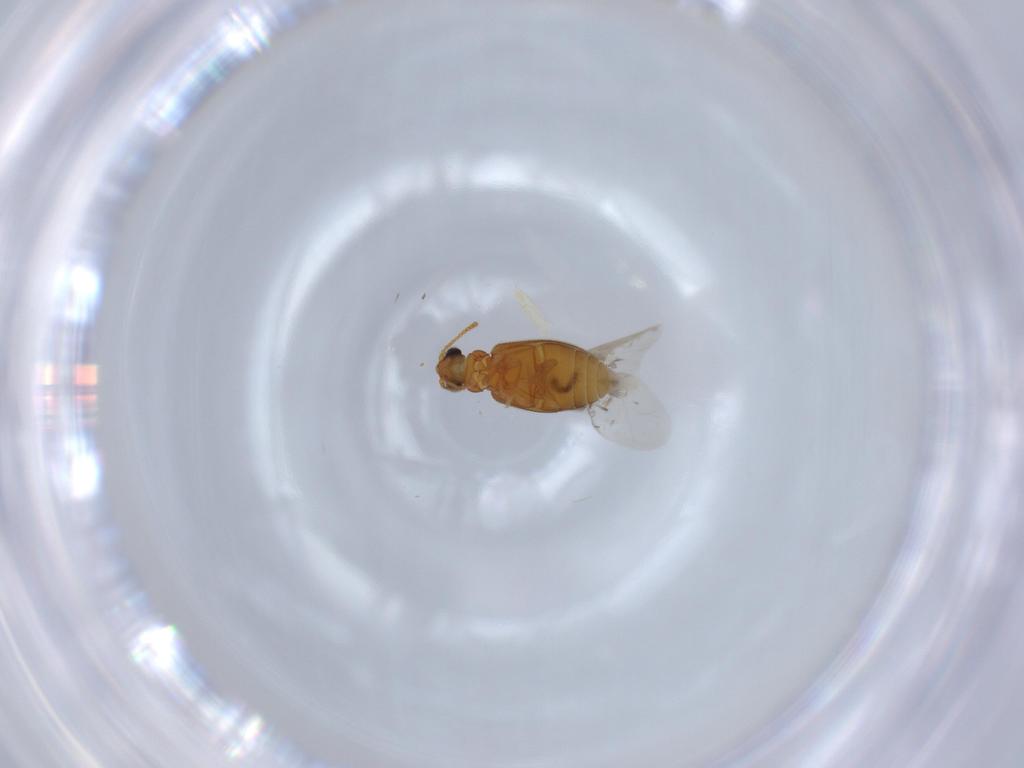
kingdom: Animalia
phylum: Arthropoda
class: Insecta
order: Coleoptera
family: Aderidae
